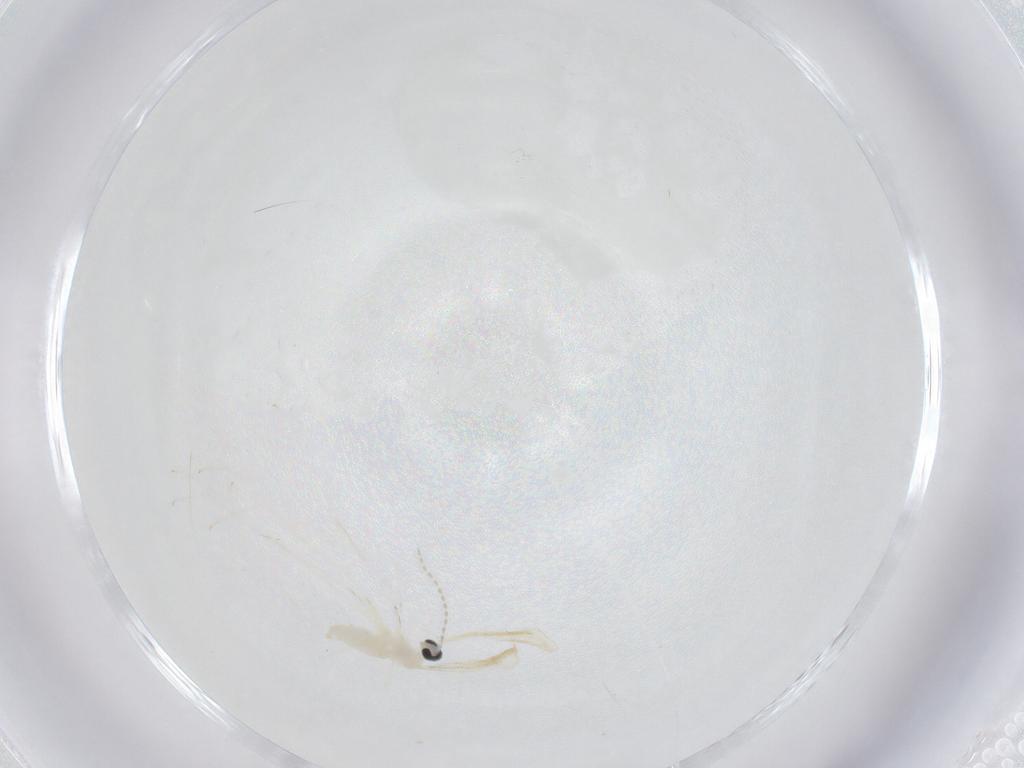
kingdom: Animalia
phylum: Arthropoda
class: Insecta
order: Diptera
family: Cecidomyiidae
